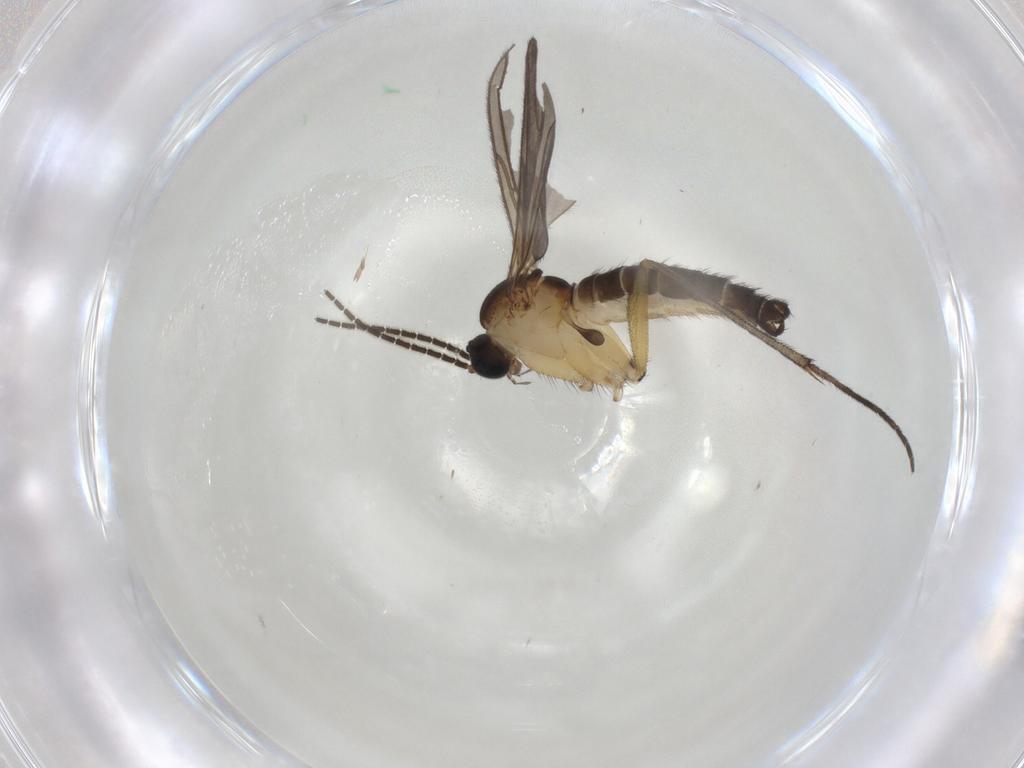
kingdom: Animalia
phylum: Arthropoda
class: Insecta
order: Diptera
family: Sciaridae
